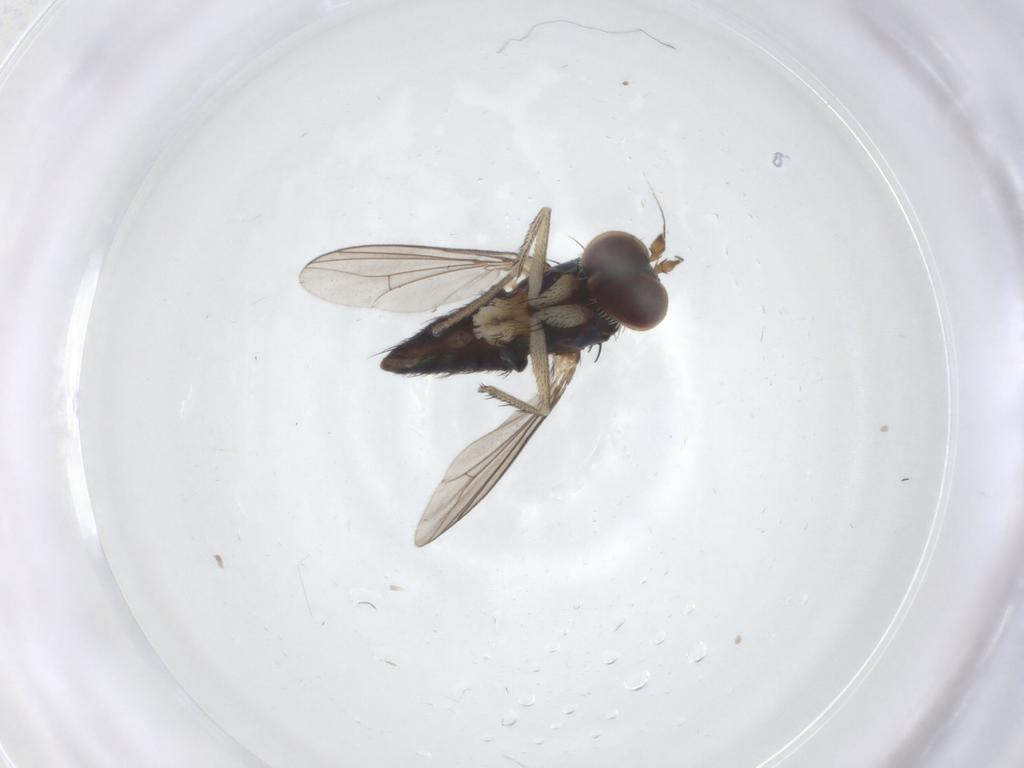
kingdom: Animalia
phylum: Arthropoda
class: Insecta
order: Diptera
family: Dolichopodidae
